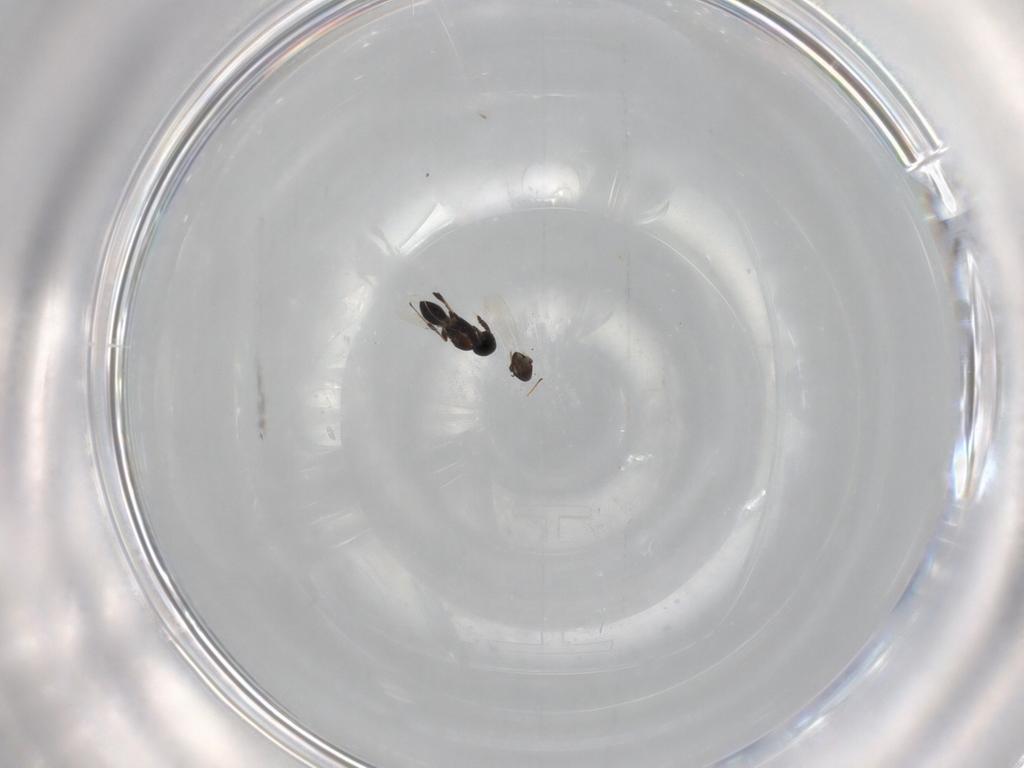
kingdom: Animalia
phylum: Arthropoda
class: Insecta
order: Hymenoptera
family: Platygastridae
